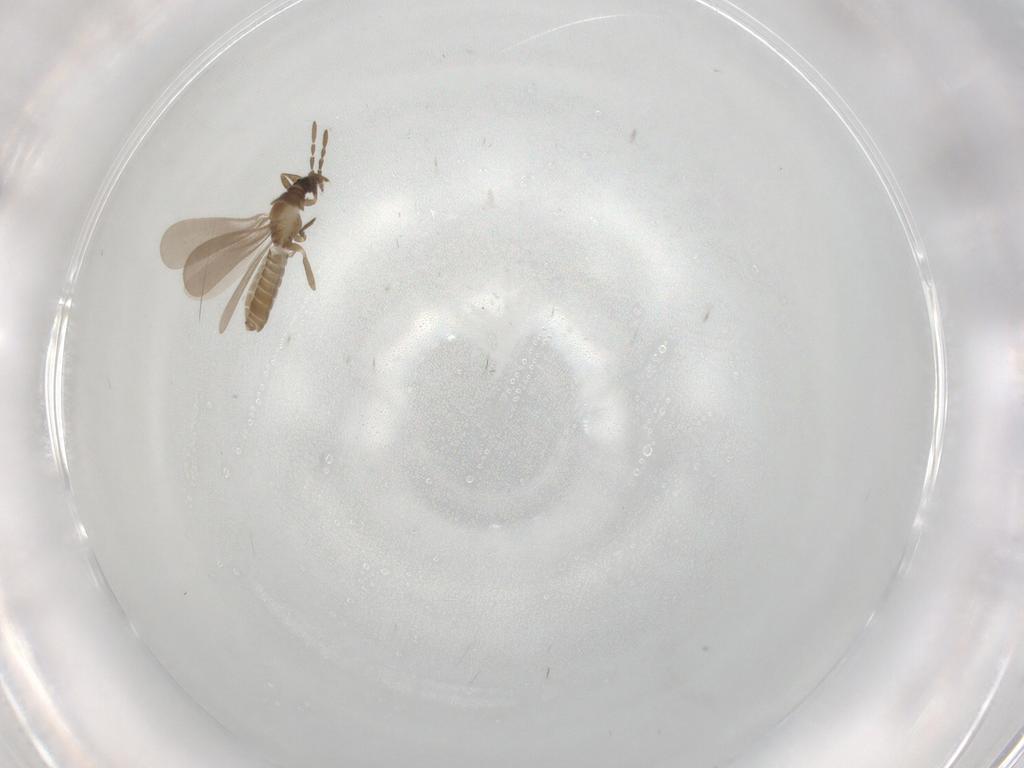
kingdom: Animalia
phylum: Arthropoda
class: Insecta
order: Hemiptera
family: Enicocephalidae
